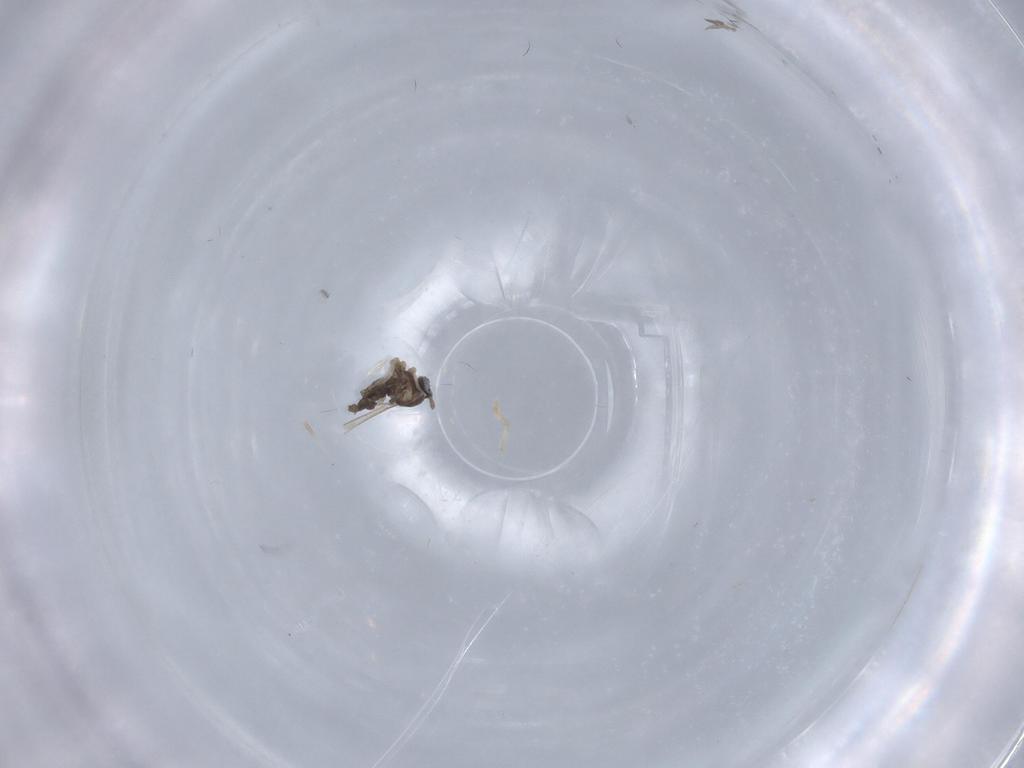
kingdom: Animalia
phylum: Arthropoda
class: Insecta
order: Diptera
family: Cecidomyiidae
